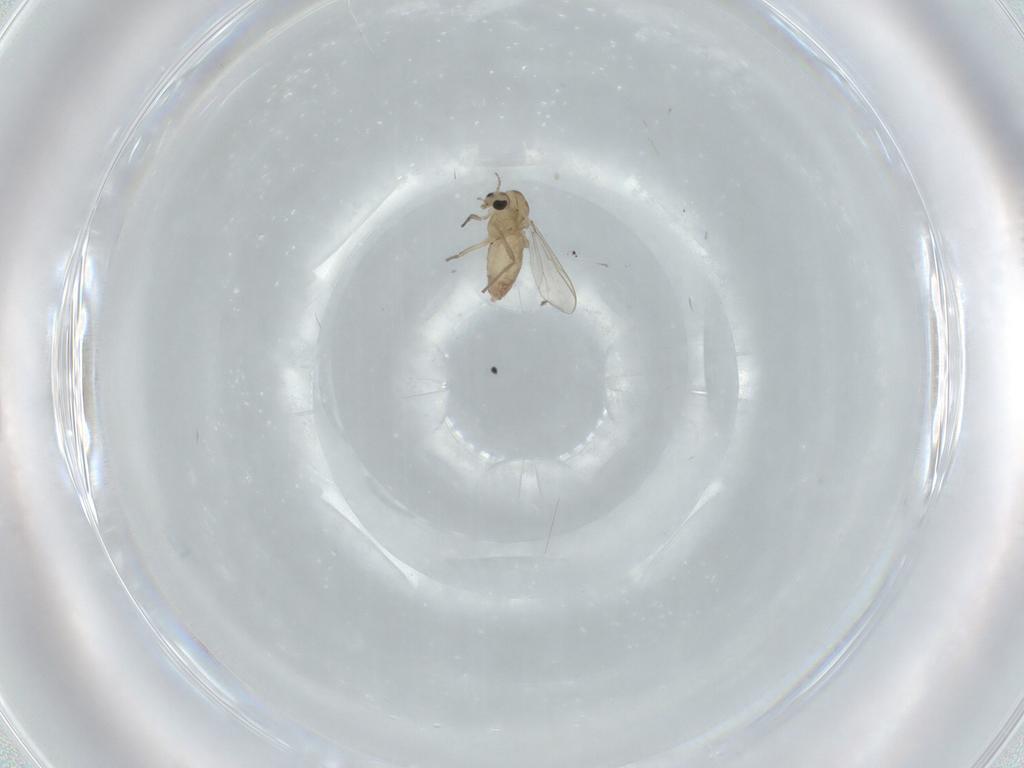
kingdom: Animalia
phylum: Arthropoda
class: Insecta
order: Diptera
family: Chironomidae
